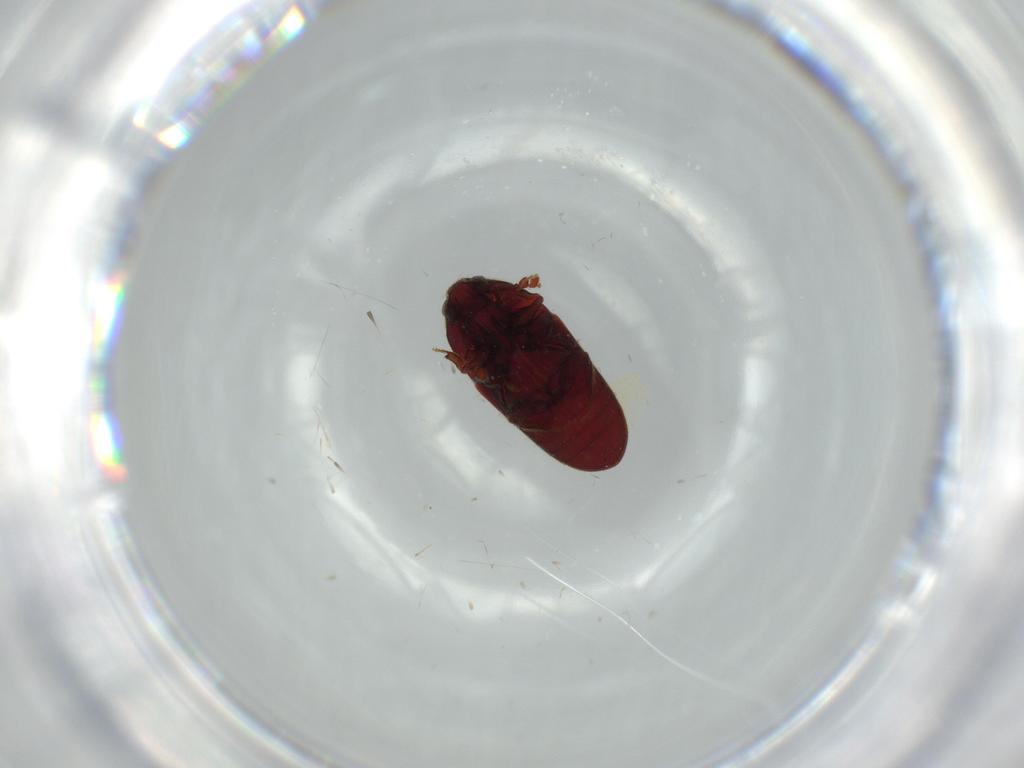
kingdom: Animalia
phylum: Arthropoda
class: Insecta
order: Coleoptera
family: Throscidae
